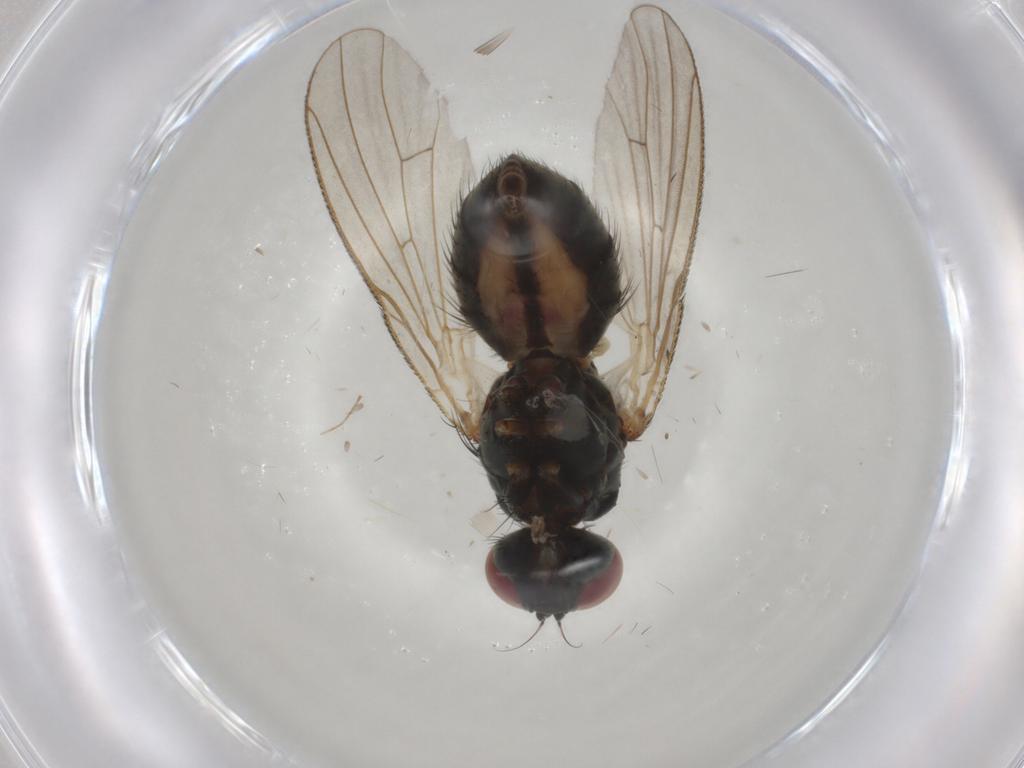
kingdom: Animalia
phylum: Arthropoda
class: Insecta
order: Diptera
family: Muscidae
